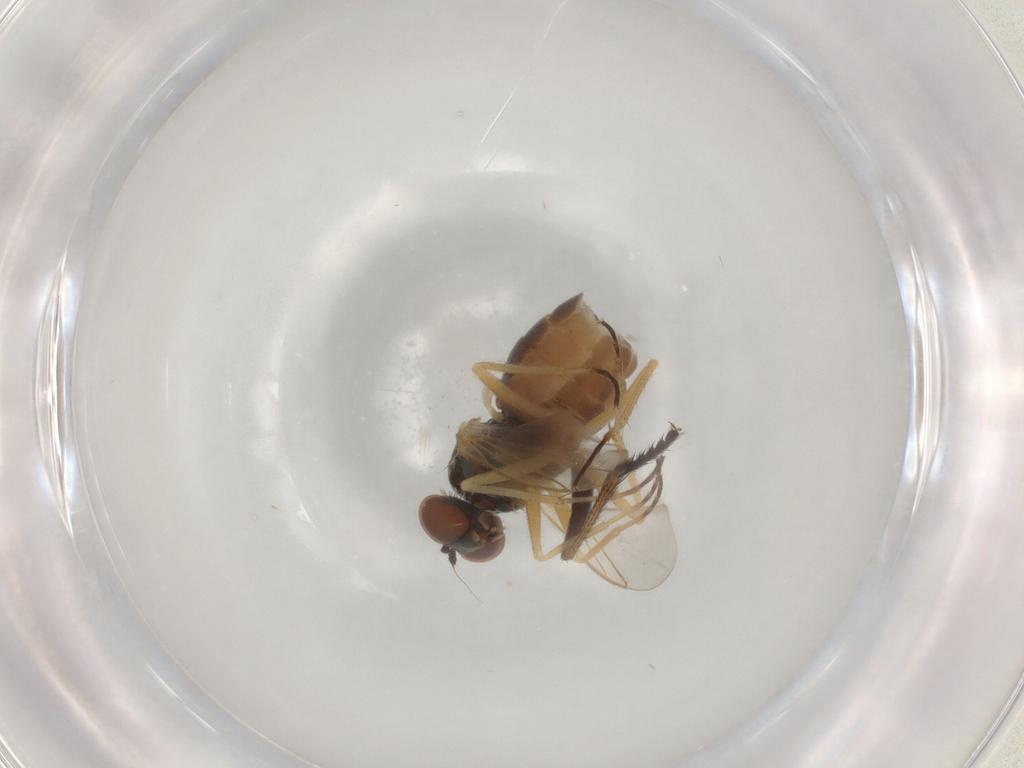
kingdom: Animalia
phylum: Arthropoda
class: Insecta
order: Diptera
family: Dolichopodidae
